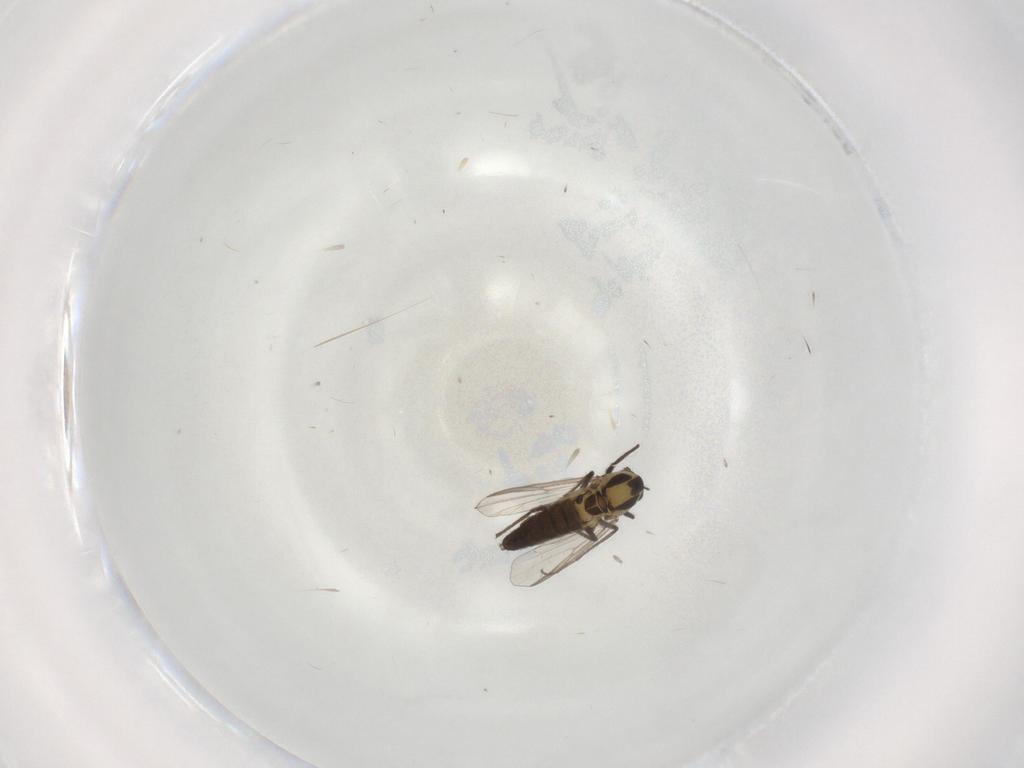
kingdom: Animalia
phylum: Arthropoda
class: Insecta
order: Diptera
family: Chironomidae
